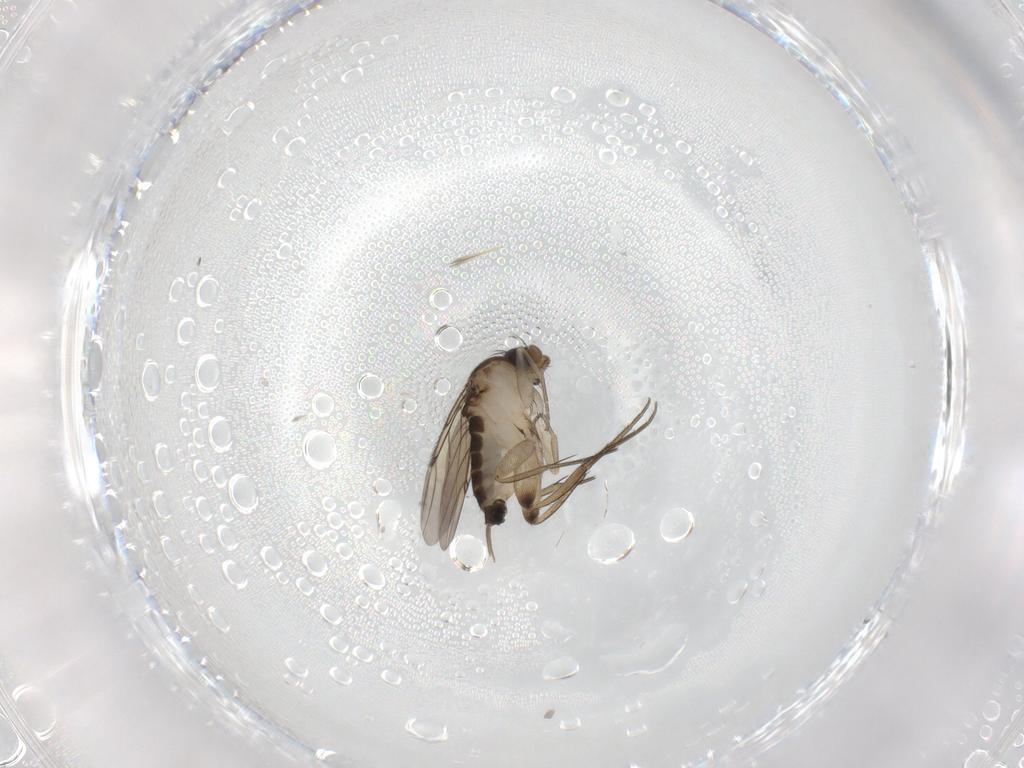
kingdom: Animalia
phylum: Arthropoda
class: Insecta
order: Diptera
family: Phoridae
